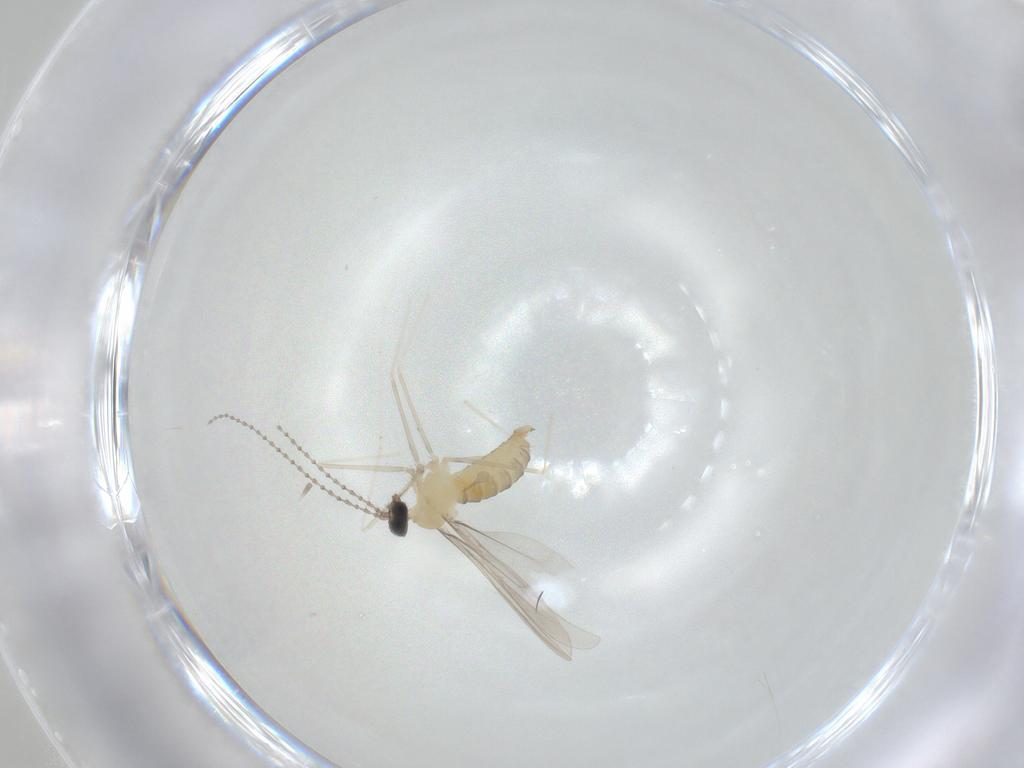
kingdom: Animalia
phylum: Arthropoda
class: Insecta
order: Diptera
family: Cecidomyiidae
